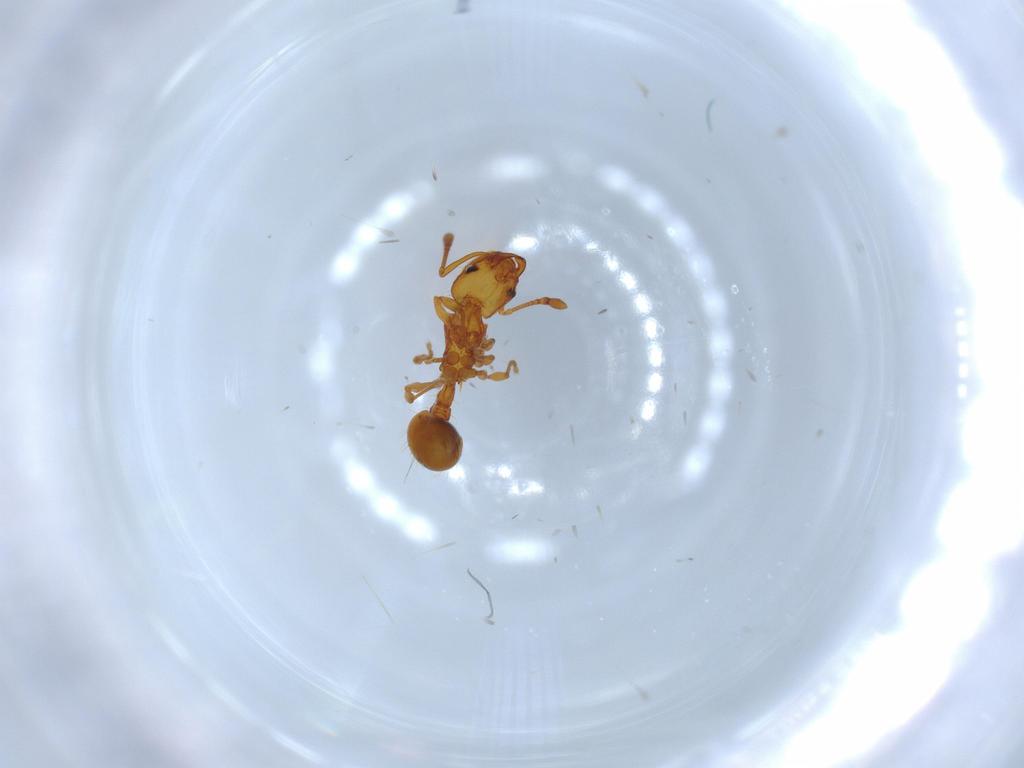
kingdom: Animalia
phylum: Arthropoda
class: Insecta
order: Hymenoptera
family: Formicidae
